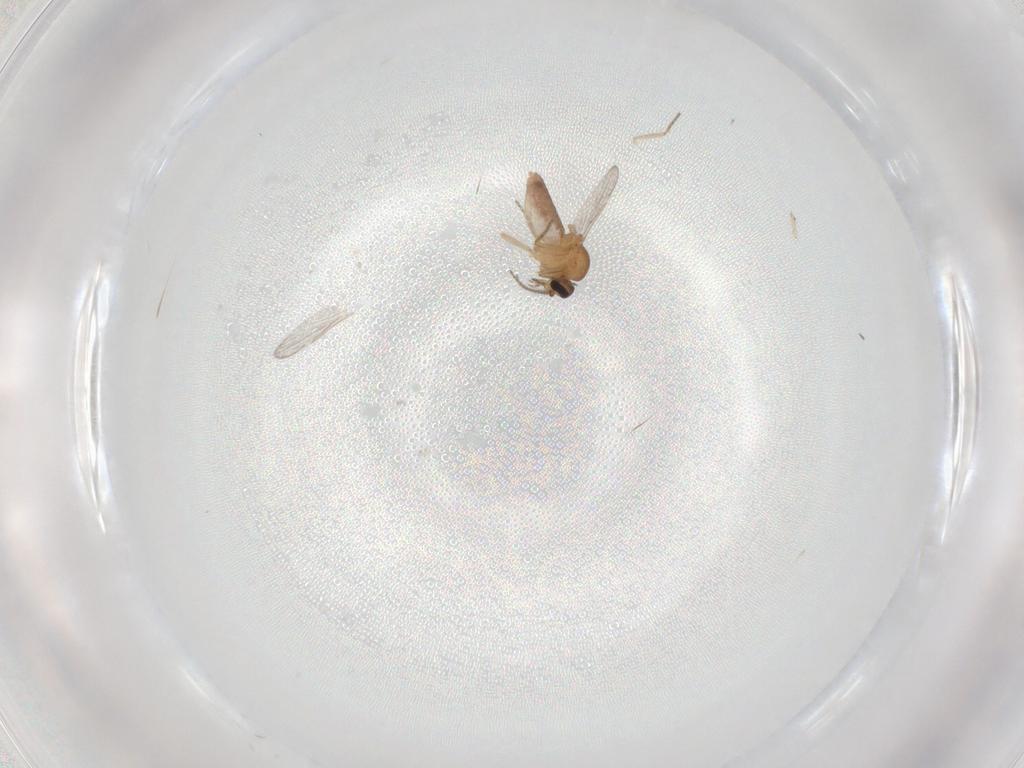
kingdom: Animalia
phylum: Arthropoda
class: Insecta
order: Diptera
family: Ceratopogonidae
